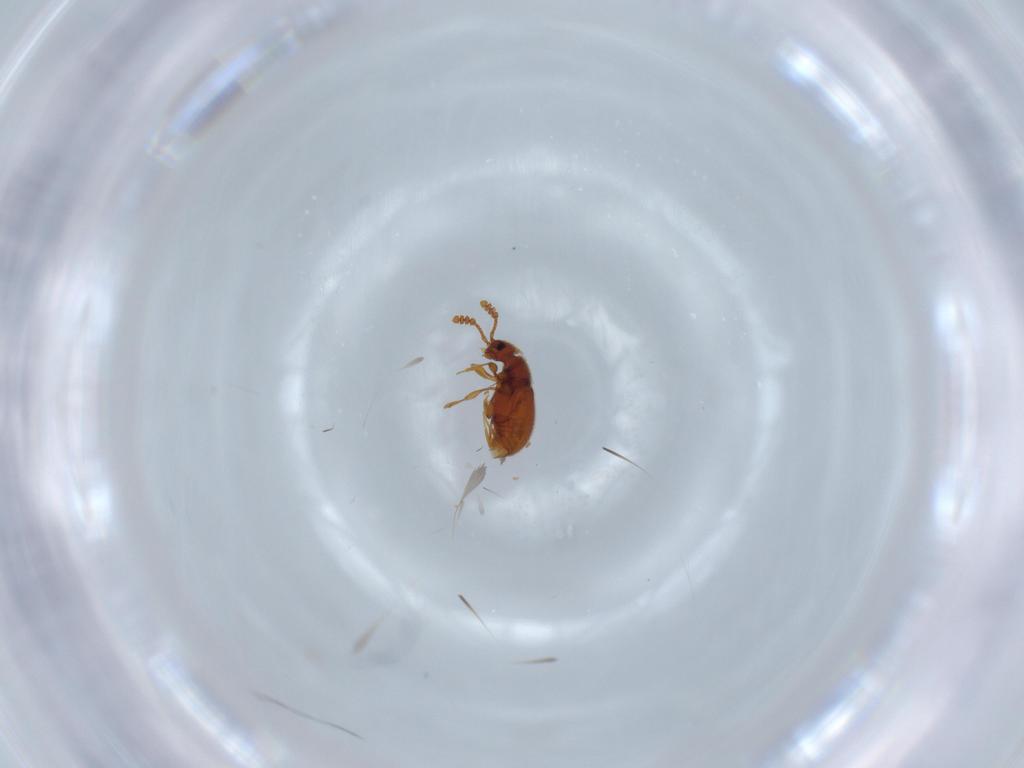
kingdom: Animalia
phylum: Arthropoda
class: Insecta
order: Coleoptera
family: Chrysomelidae
